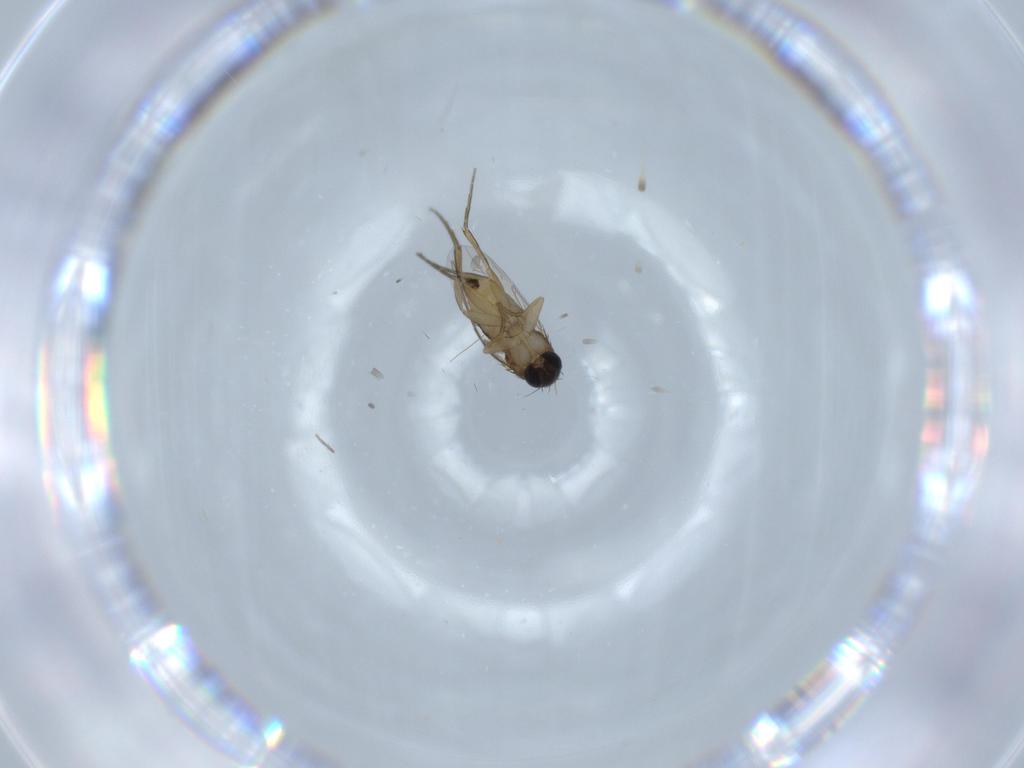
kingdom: Animalia
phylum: Arthropoda
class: Insecta
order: Diptera
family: Phoridae
